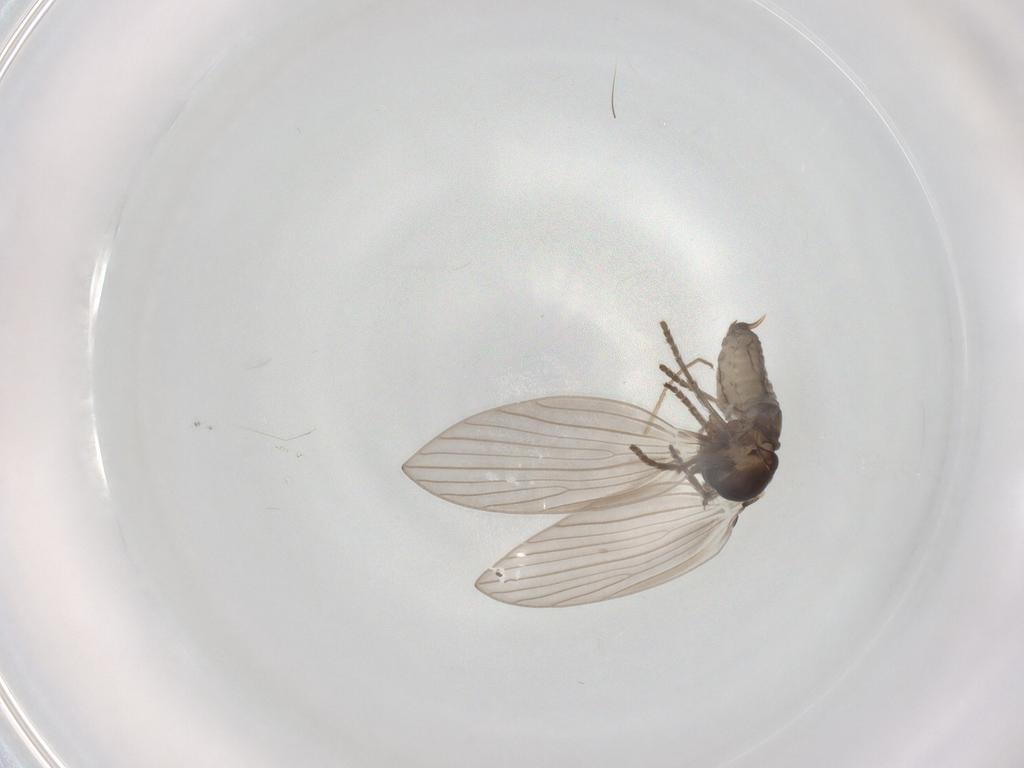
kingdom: Animalia
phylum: Arthropoda
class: Insecta
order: Diptera
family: Psychodidae
